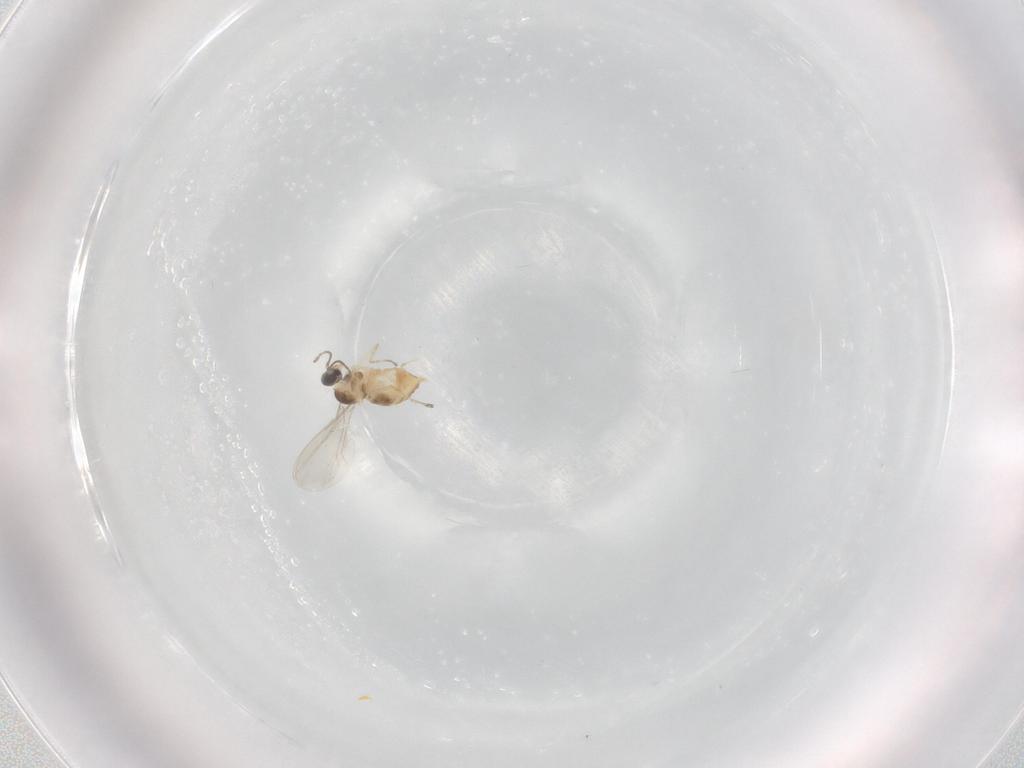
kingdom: Animalia
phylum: Arthropoda
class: Insecta
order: Diptera
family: Cecidomyiidae
